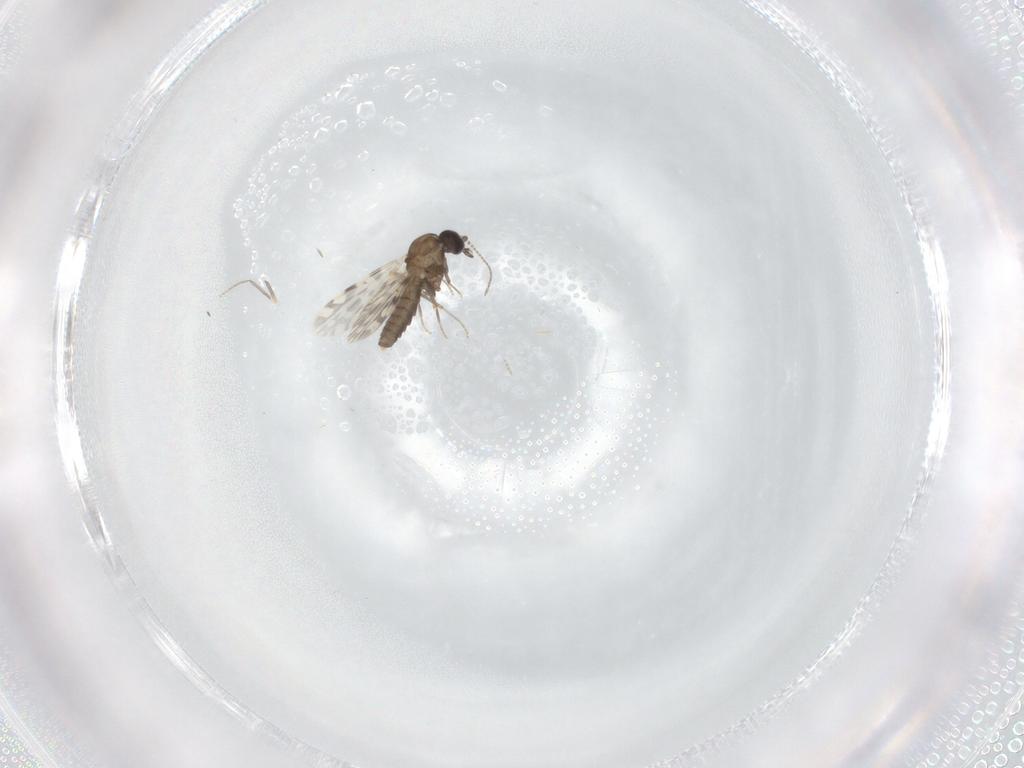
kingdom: Animalia
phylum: Arthropoda
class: Insecta
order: Diptera
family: Ceratopogonidae
